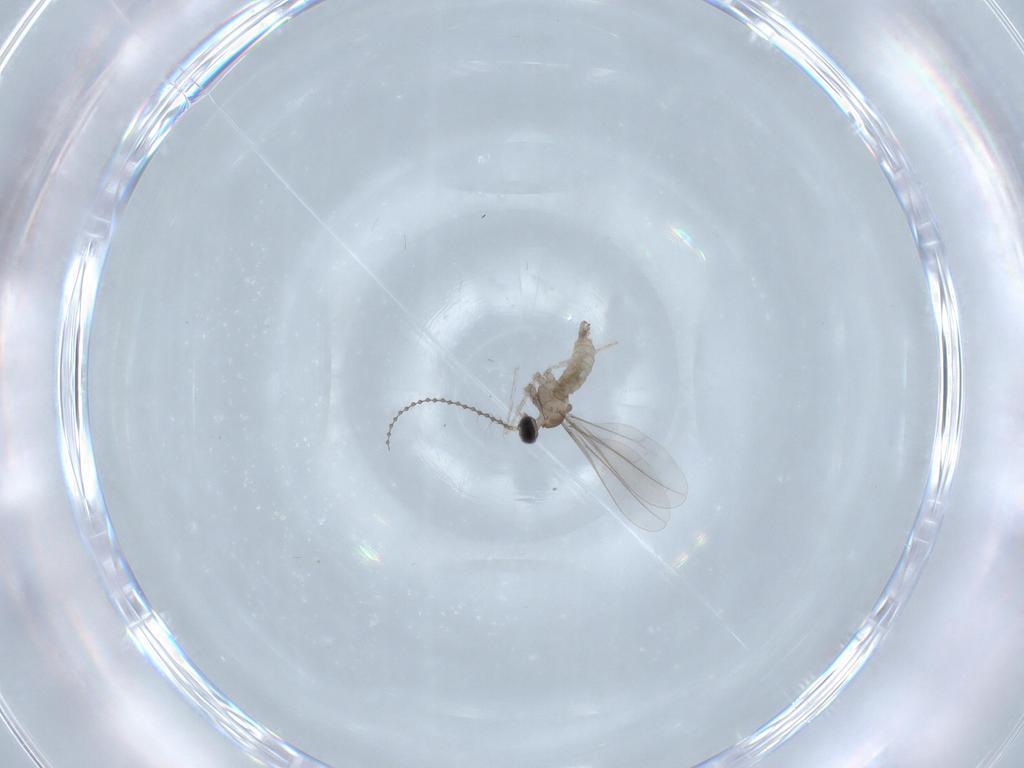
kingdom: Animalia
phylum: Arthropoda
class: Insecta
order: Diptera
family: Cecidomyiidae
